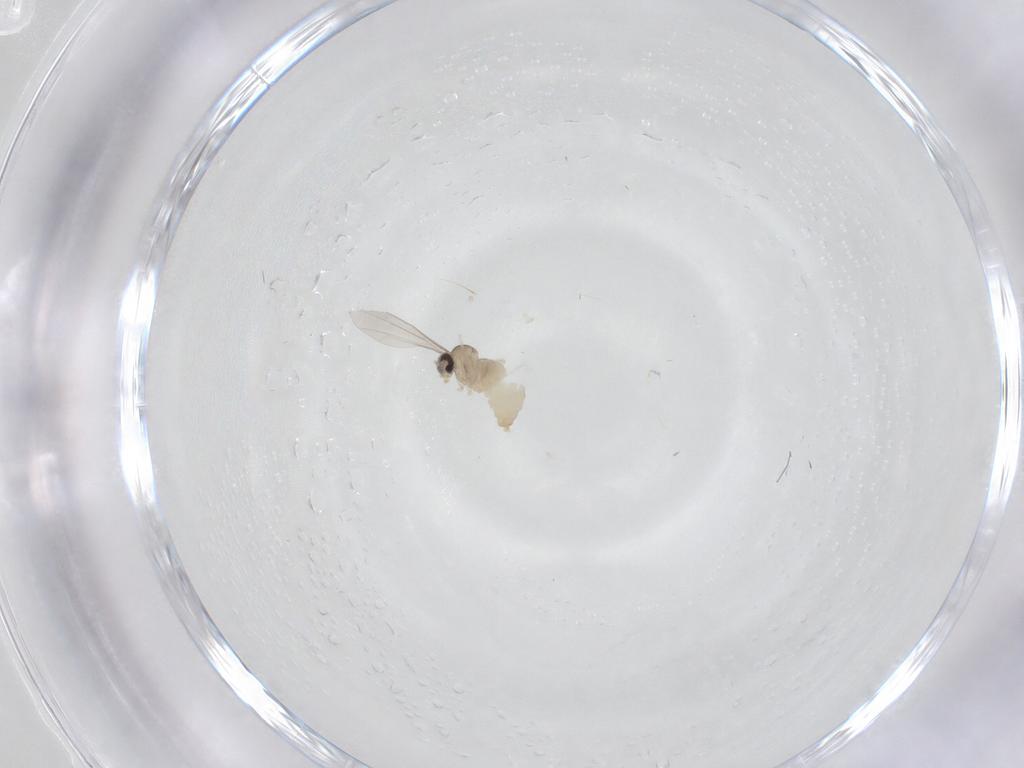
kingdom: Animalia
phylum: Arthropoda
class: Insecta
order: Diptera
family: Cecidomyiidae
